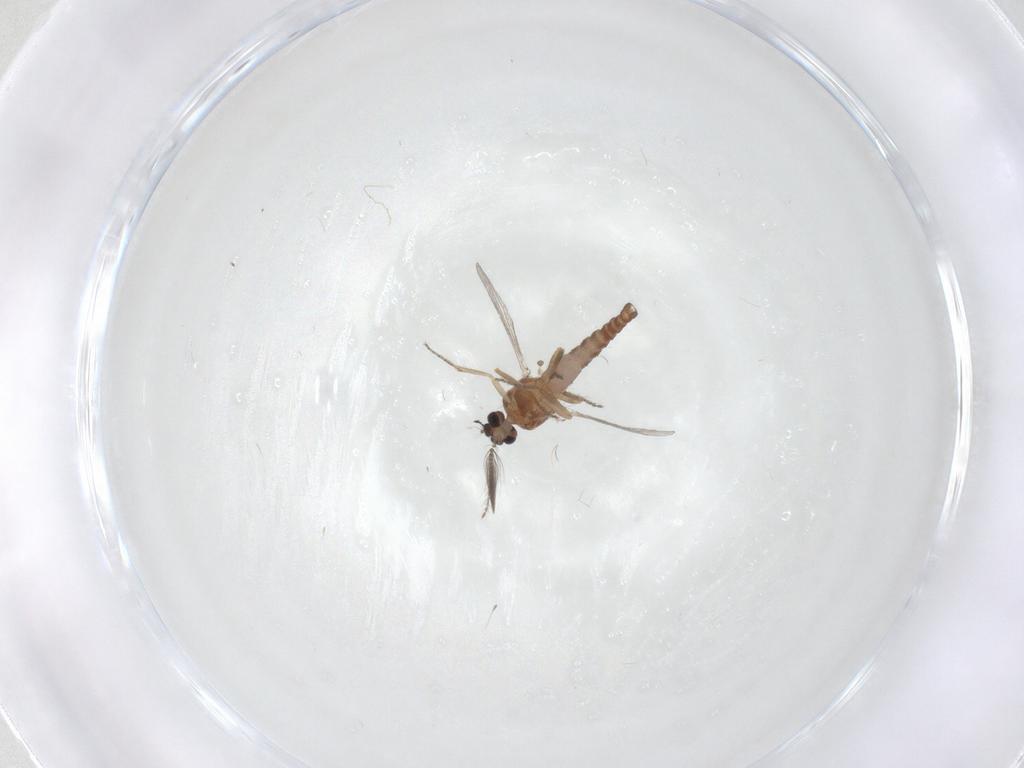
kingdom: Animalia
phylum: Arthropoda
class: Insecta
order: Diptera
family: Ceratopogonidae
